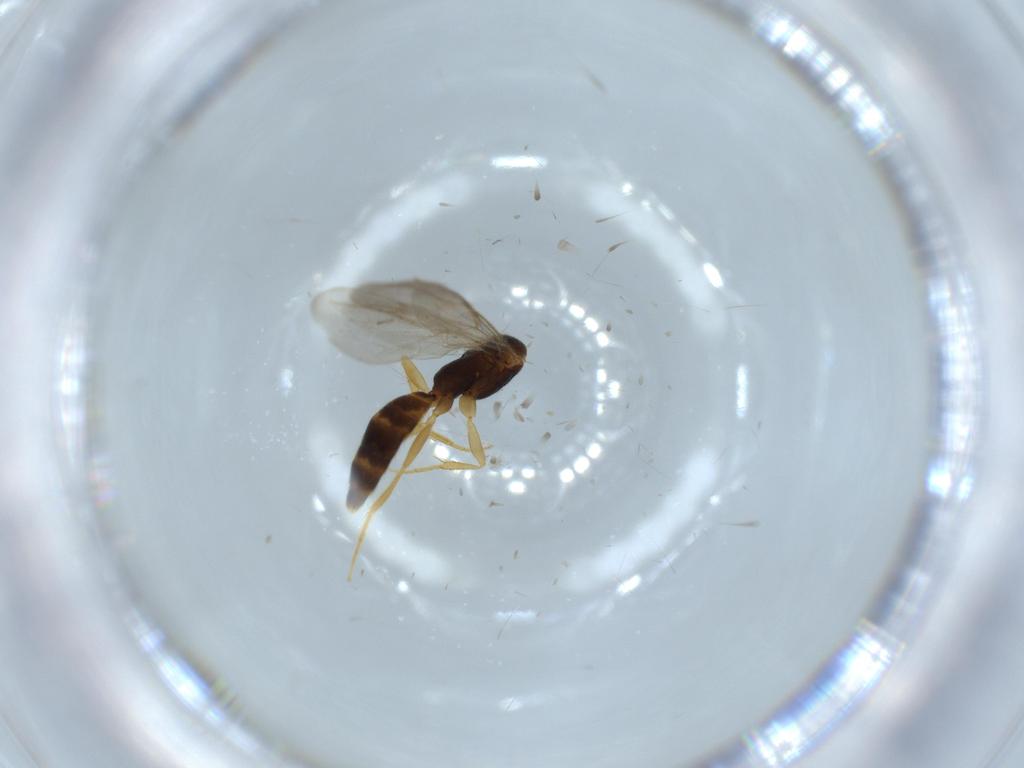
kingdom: Animalia
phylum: Arthropoda
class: Insecta
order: Hymenoptera
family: Bethylidae
